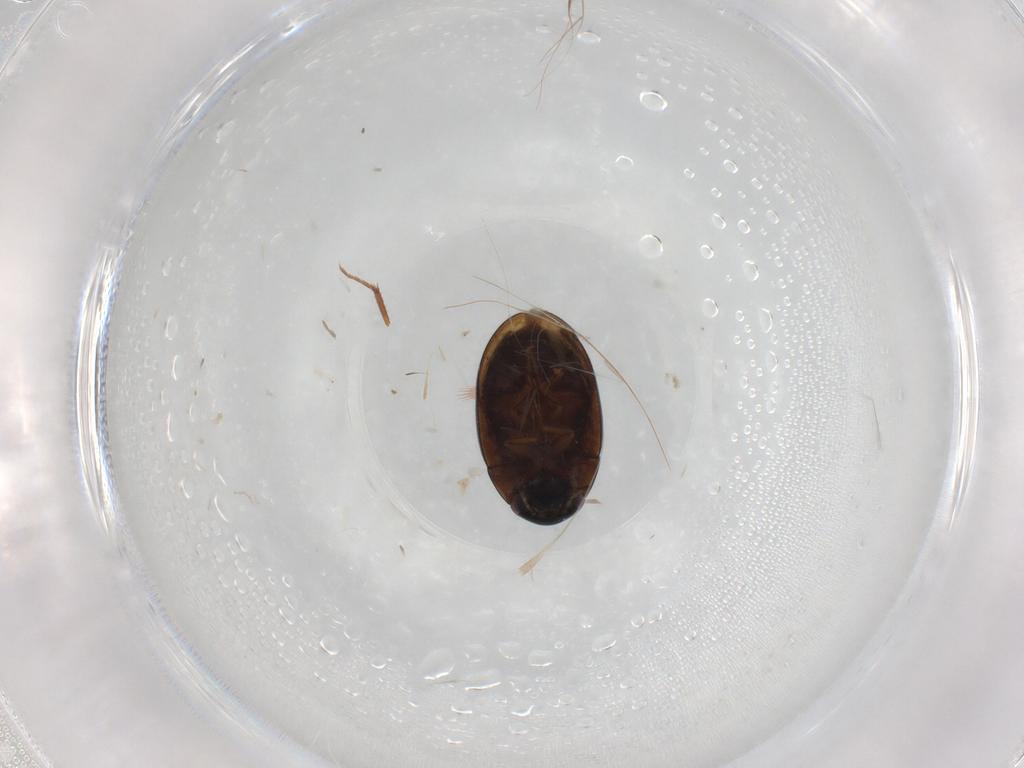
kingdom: Animalia
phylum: Arthropoda
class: Insecta
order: Coleoptera
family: Hydrophilidae
